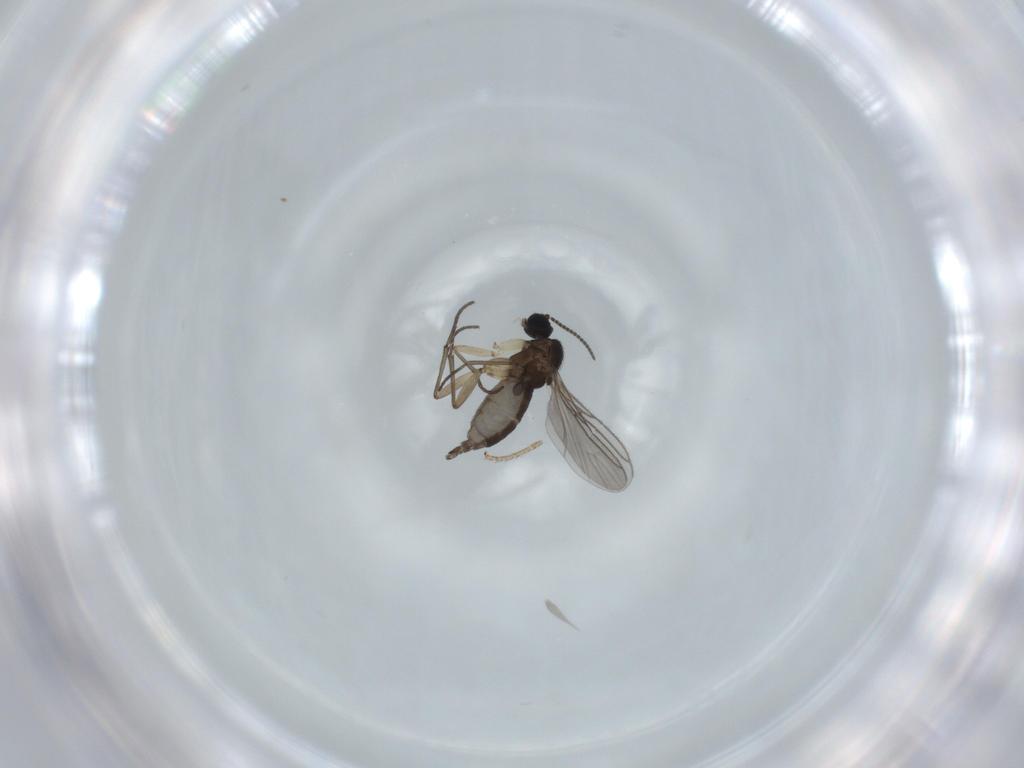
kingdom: Animalia
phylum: Arthropoda
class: Insecta
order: Diptera
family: Sciaridae
